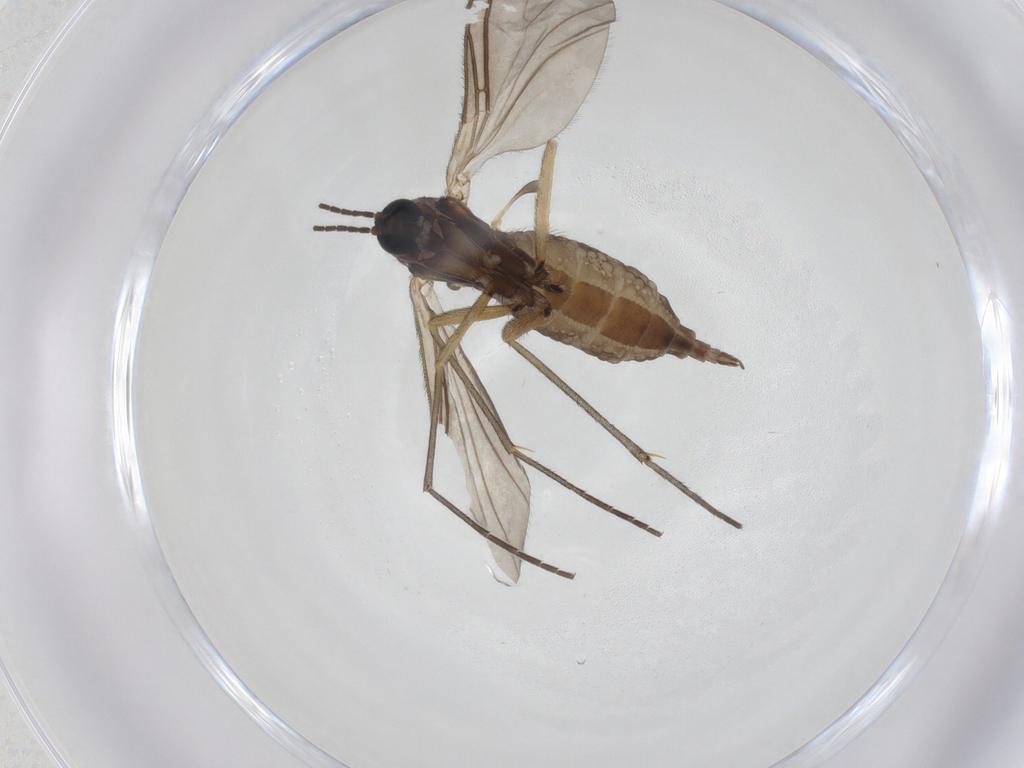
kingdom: Animalia
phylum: Arthropoda
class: Insecta
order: Diptera
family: Sciaridae
